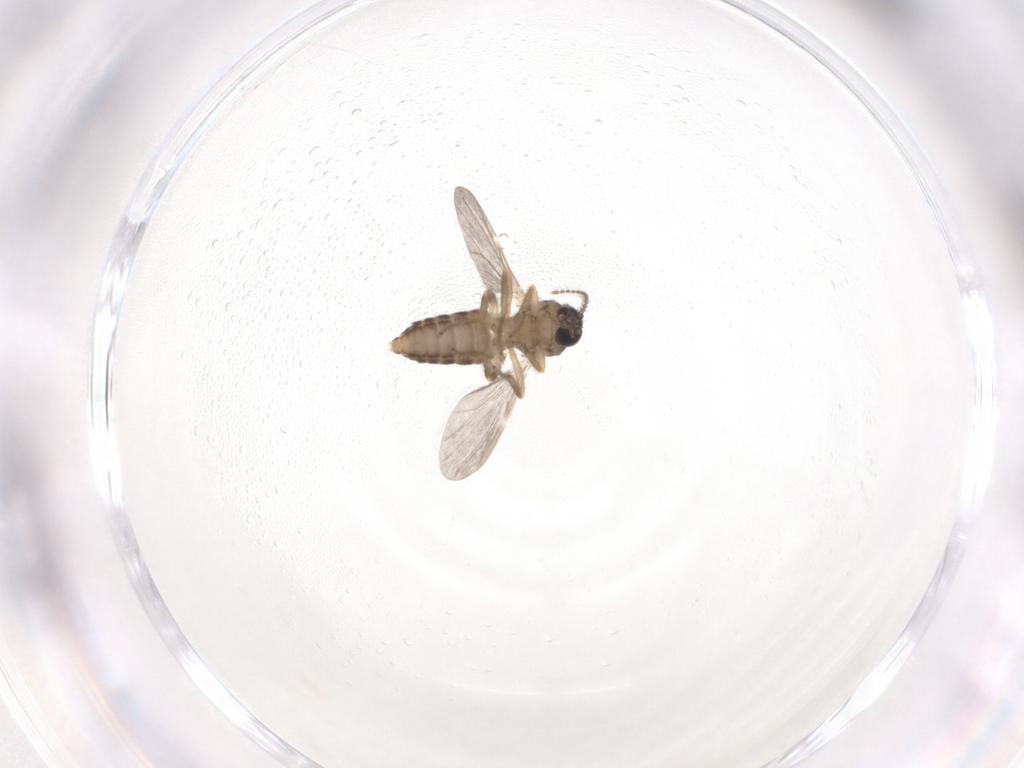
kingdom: Animalia
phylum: Arthropoda
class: Insecta
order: Diptera
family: Ceratopogonidae
